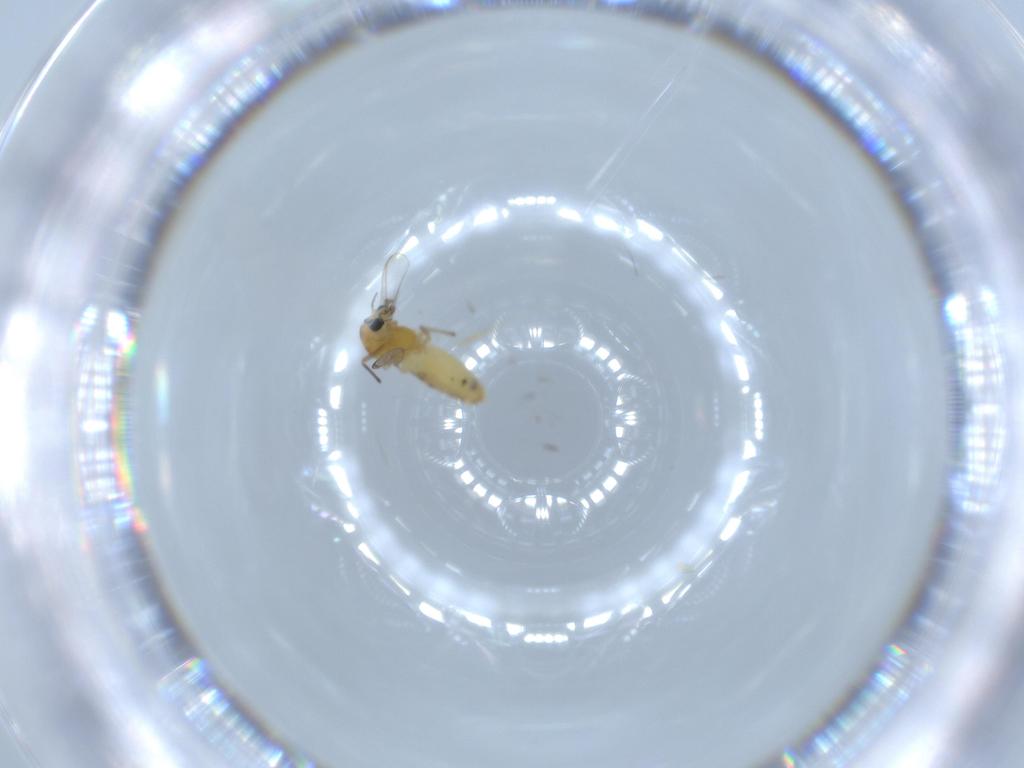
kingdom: Animalia
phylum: Arthropoda
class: Insecta
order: Diptera
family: Chironomidae
